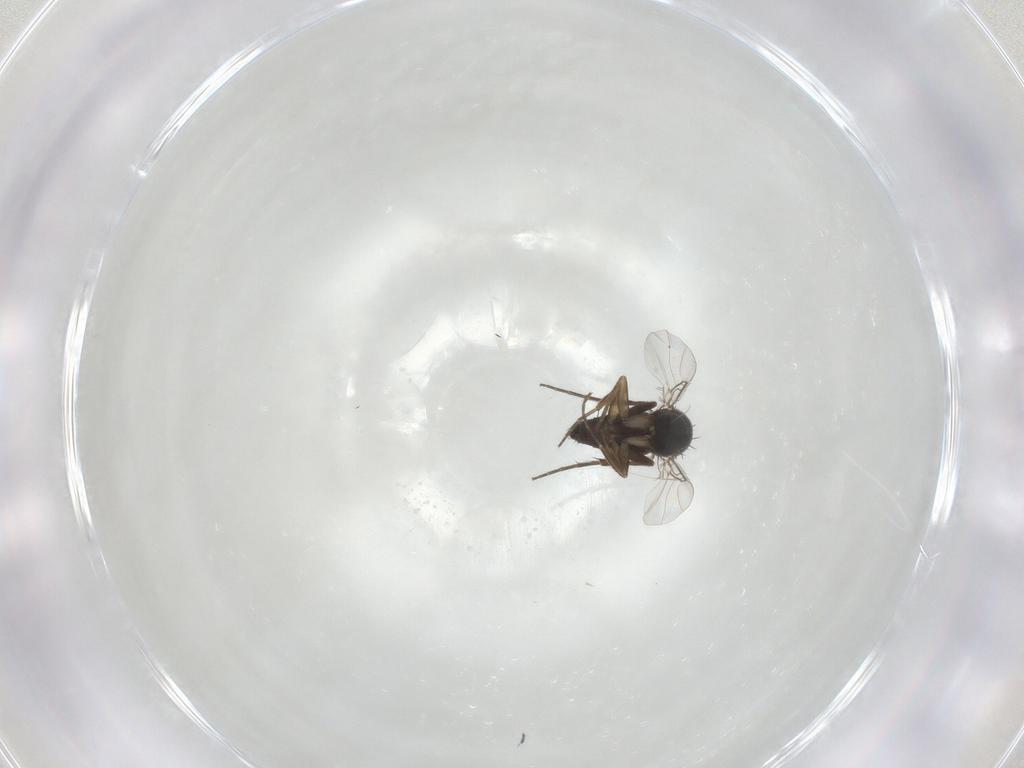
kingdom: Animalia
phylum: Arthropoda
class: Insecta
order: Diptera
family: Phoridae
